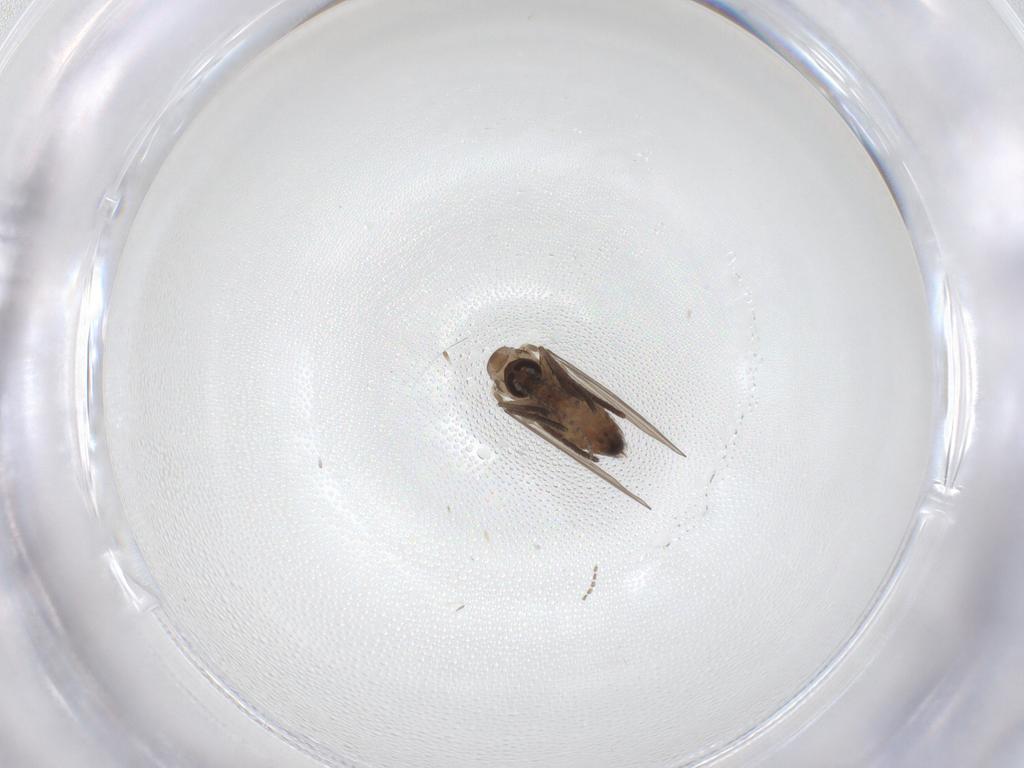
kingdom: Animalia
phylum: Arthropoda
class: Insecta
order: Diptera
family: Psychodidae
